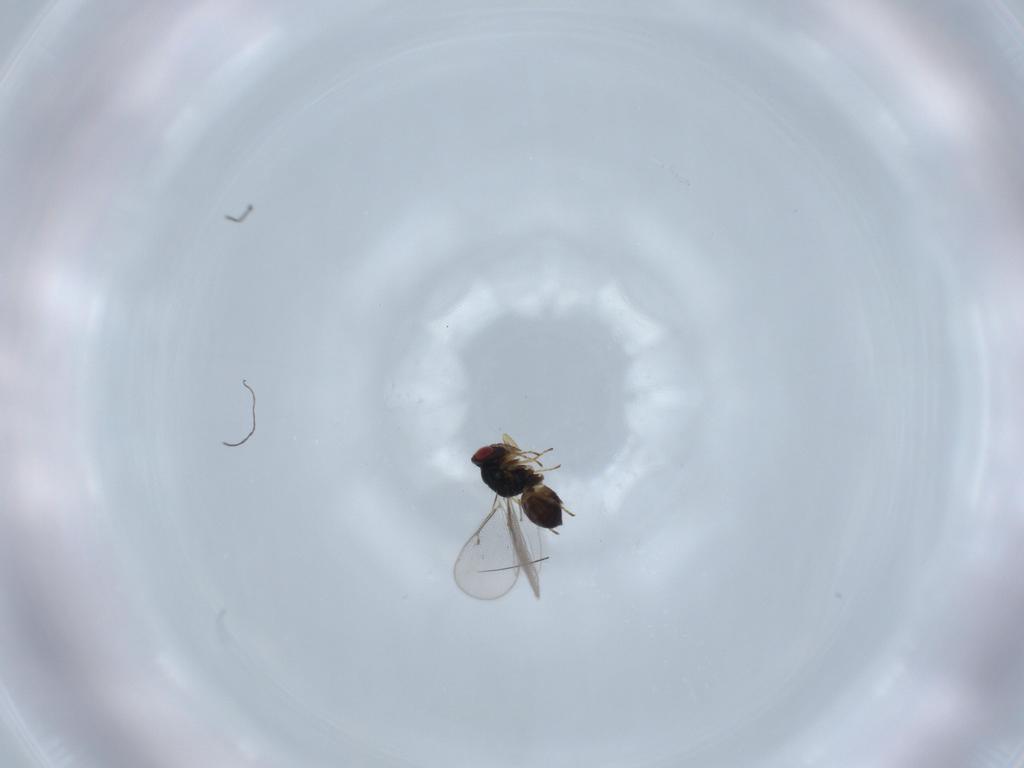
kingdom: Animalia
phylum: Arthropoda
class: Insecta
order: Hymenoptera
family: Eulophidae
